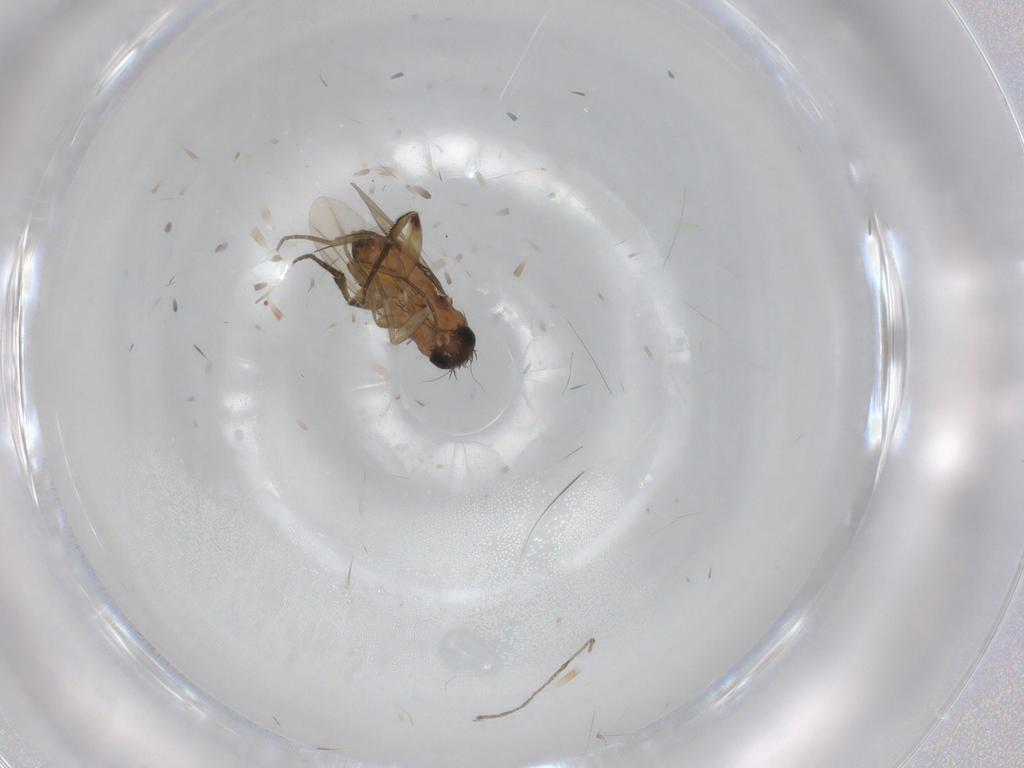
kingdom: Animalia
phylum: Arthropoda
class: Insecta
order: Diptera
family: Phoridae
